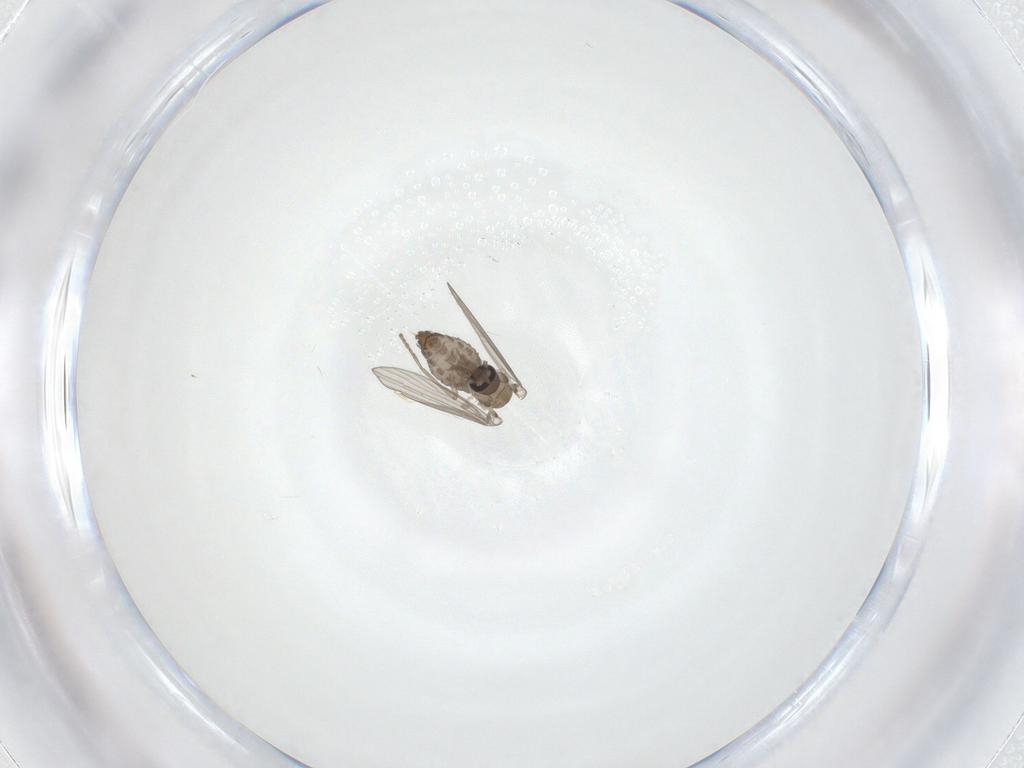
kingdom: Animalia
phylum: Arthropoda
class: Insecta
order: Diptera
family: Psychodidae
